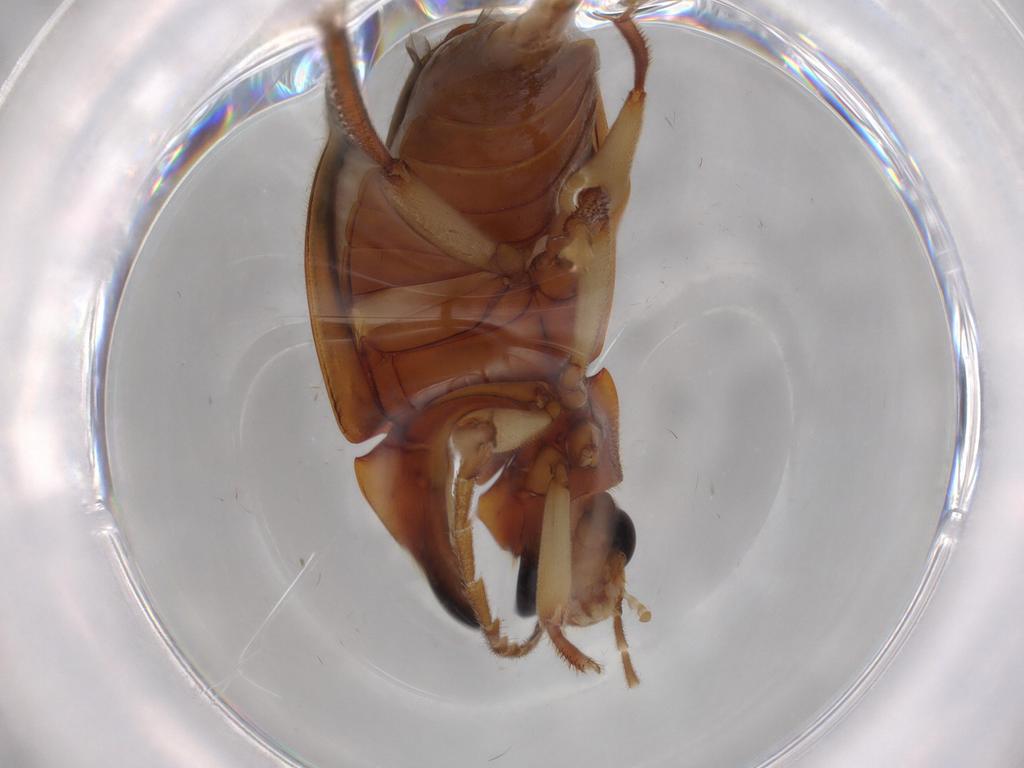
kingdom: Animalia
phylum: Arthropoda
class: Insecta
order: Coleoptera
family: Ptilodactylidae
